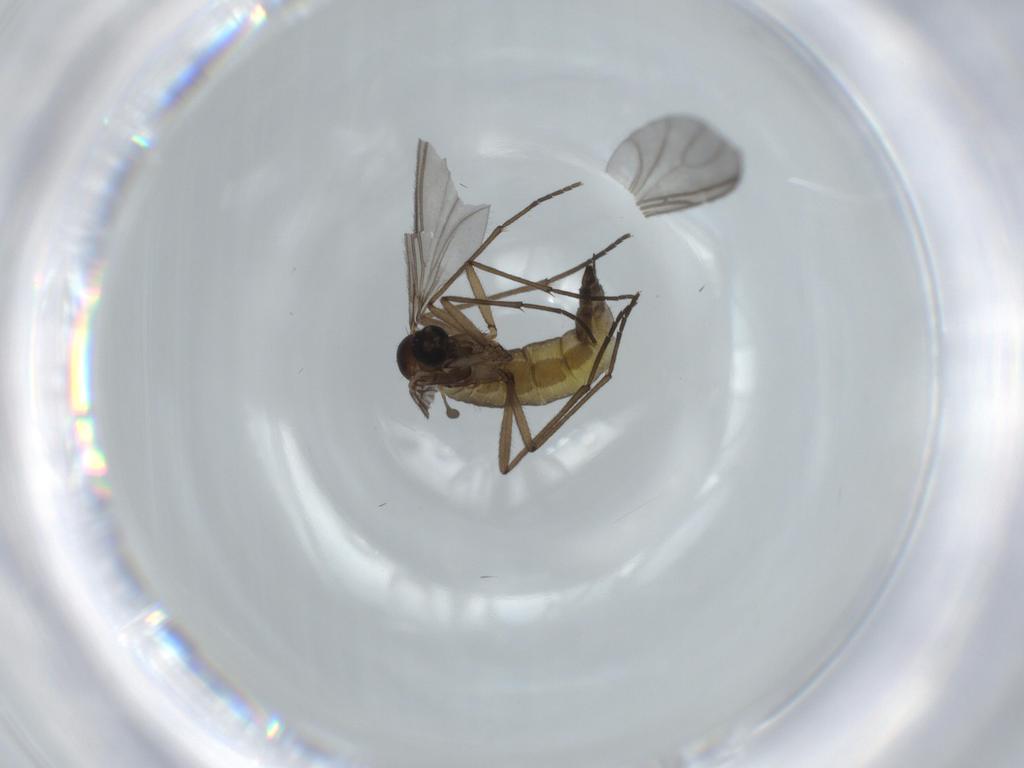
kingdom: Animalia
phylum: Arthropoda
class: Insecta
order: Diptera
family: Sciaridae
